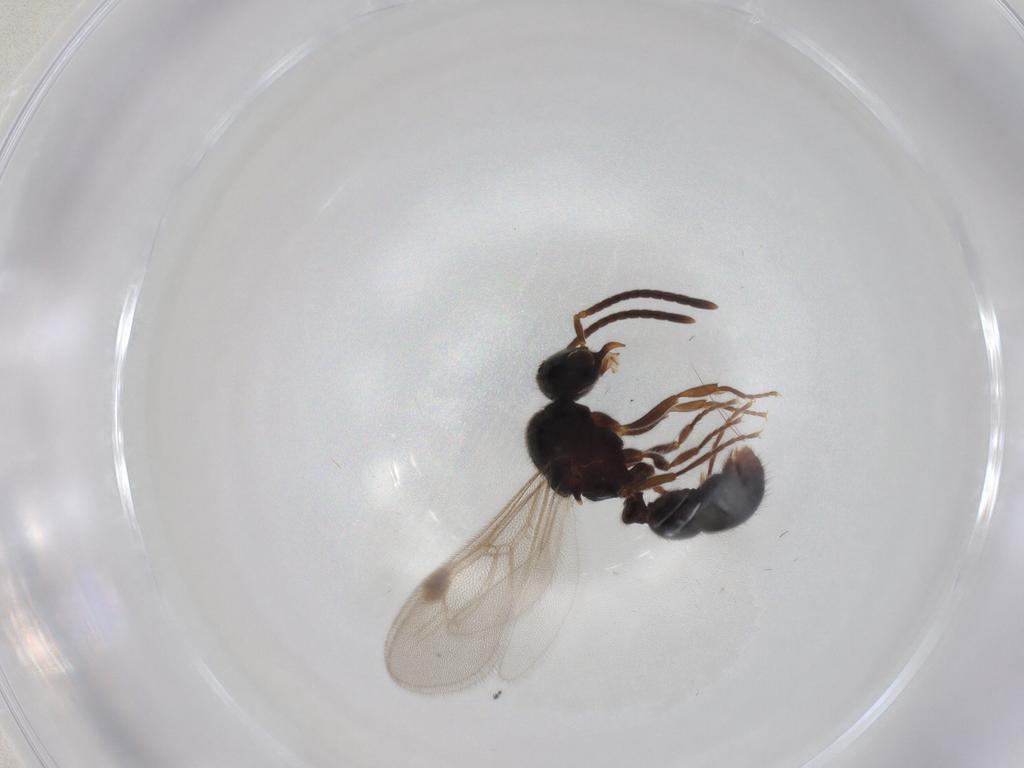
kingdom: Animalia
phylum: Arthropoda
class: Insecta
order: Hymenoptera
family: Formicidae
